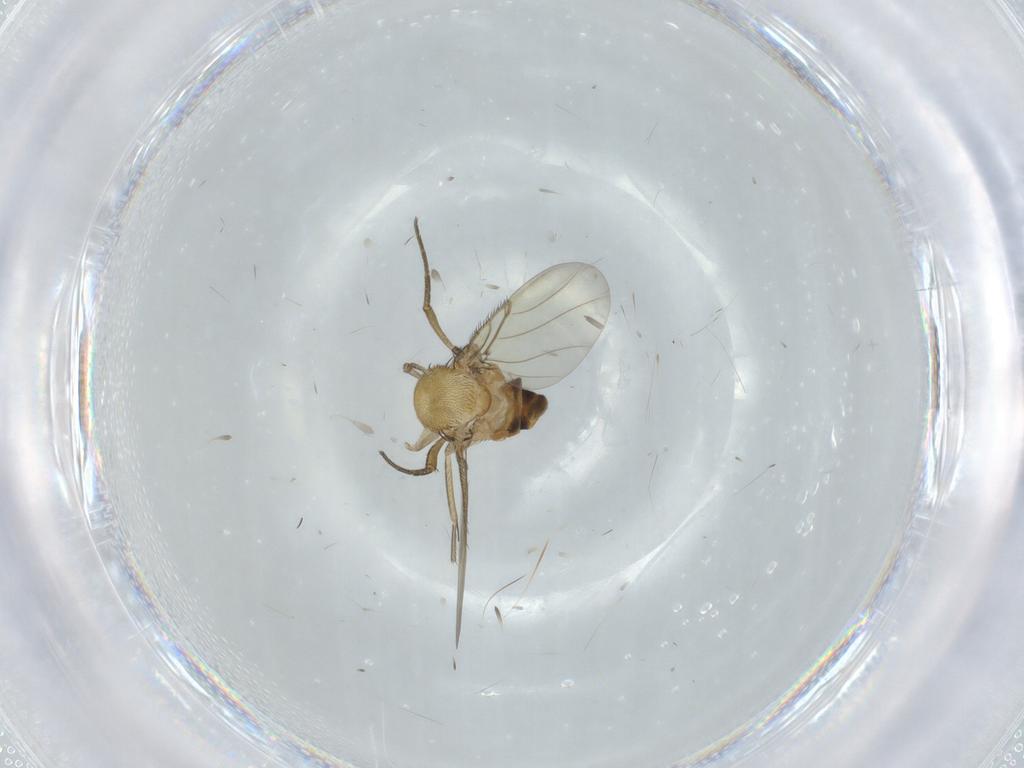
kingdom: Animalia
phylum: Arthropoda
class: Insecta
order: Diptera
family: Phoridae
